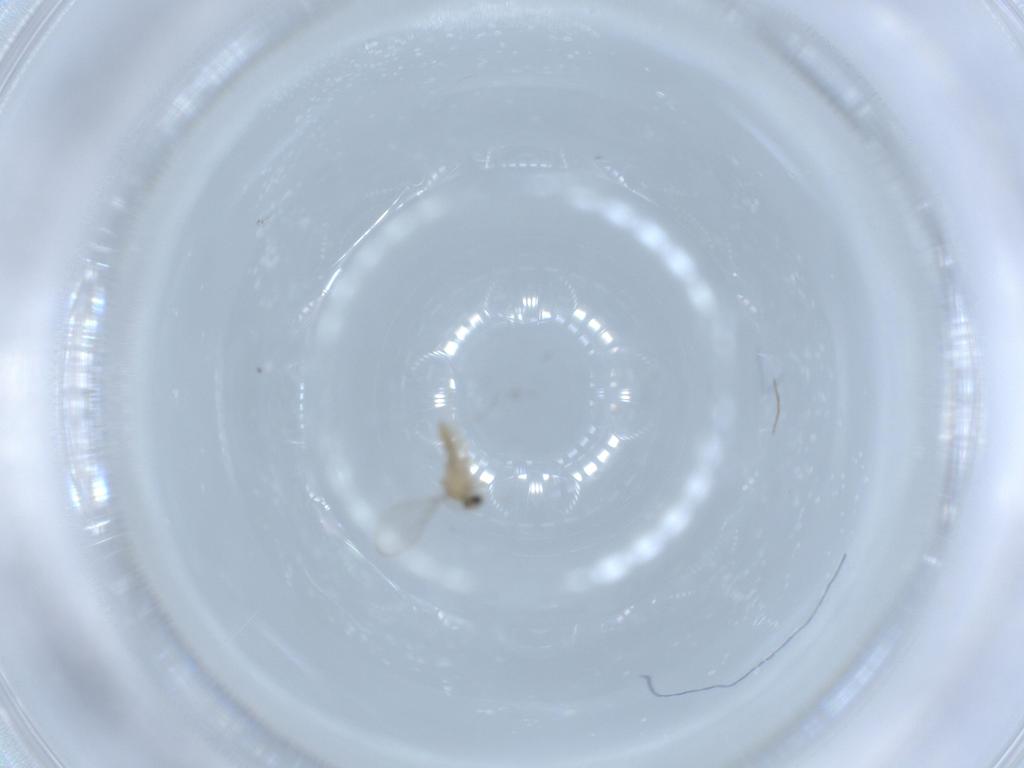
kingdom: Animalia
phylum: Arthropoda
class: Insecta
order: Diptera
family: Cecidomyiidae
